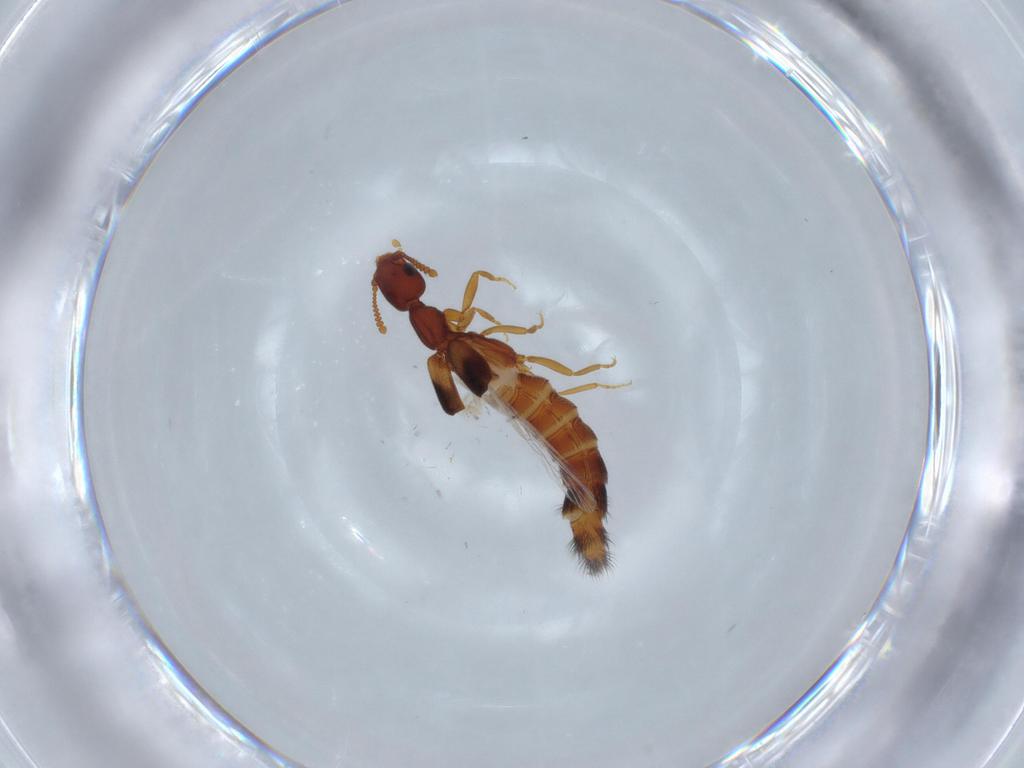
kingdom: Animalia
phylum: Arthropoda
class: Insecta
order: Coleoptera
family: Staphylinidae
